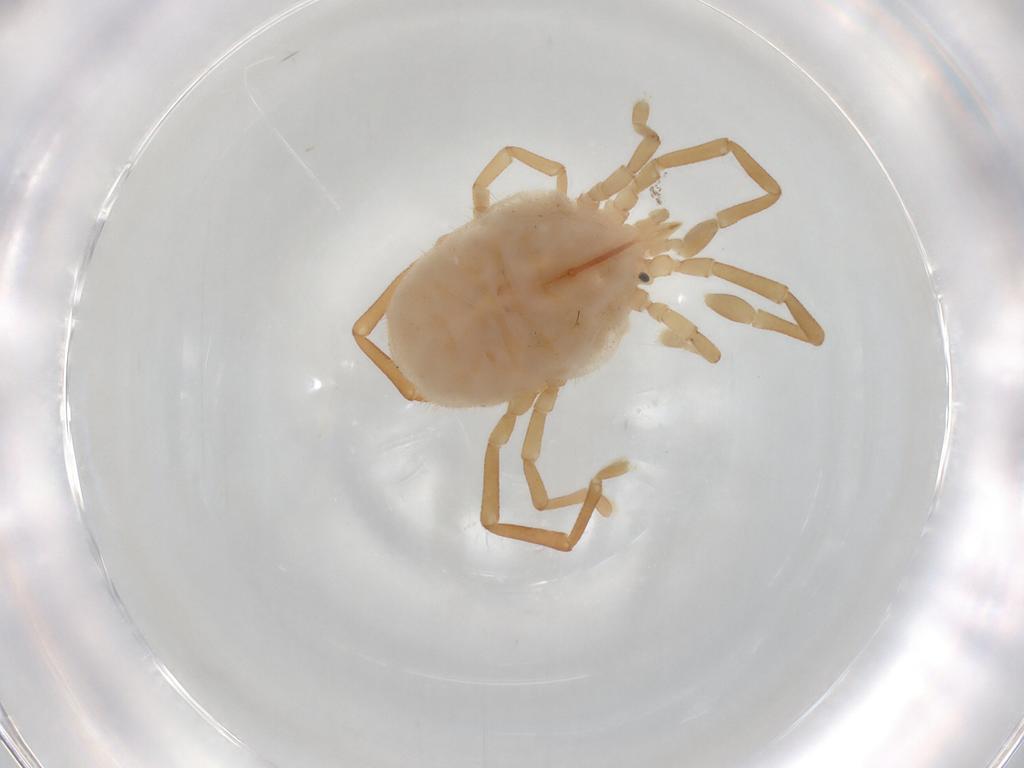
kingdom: Animalia
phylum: Arthropoda
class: Arachnida
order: Trombidiformes
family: Erythraeidae
